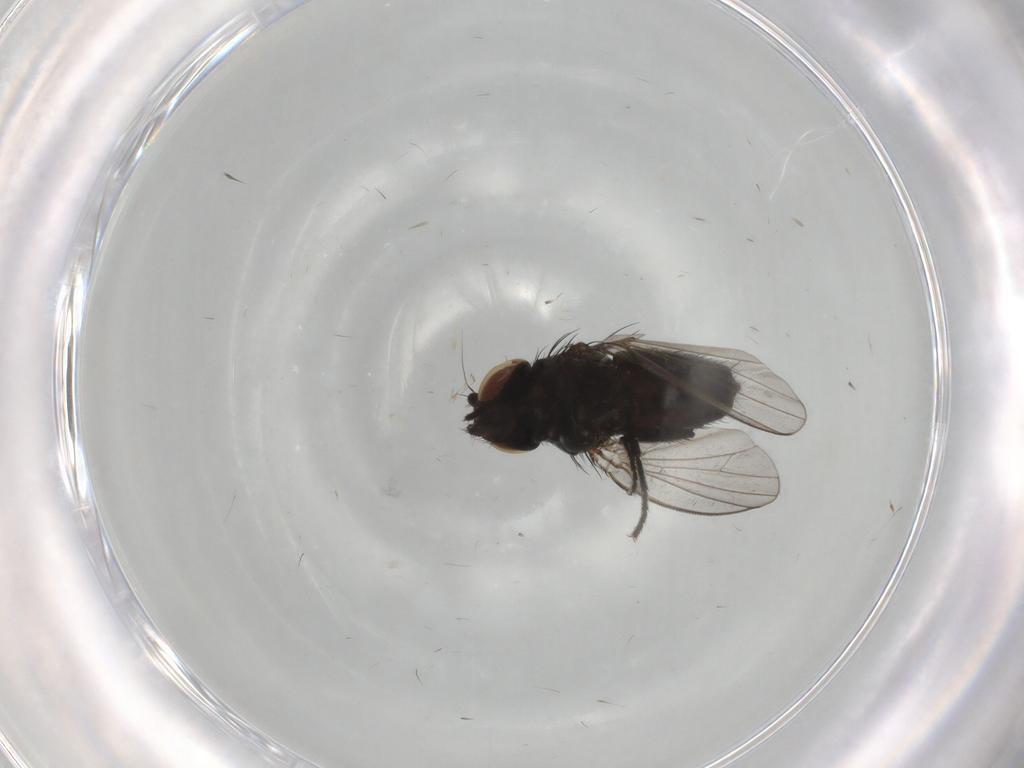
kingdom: Animalia
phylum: Arthropoda
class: Insecta
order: Diptera
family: Milichiidae
